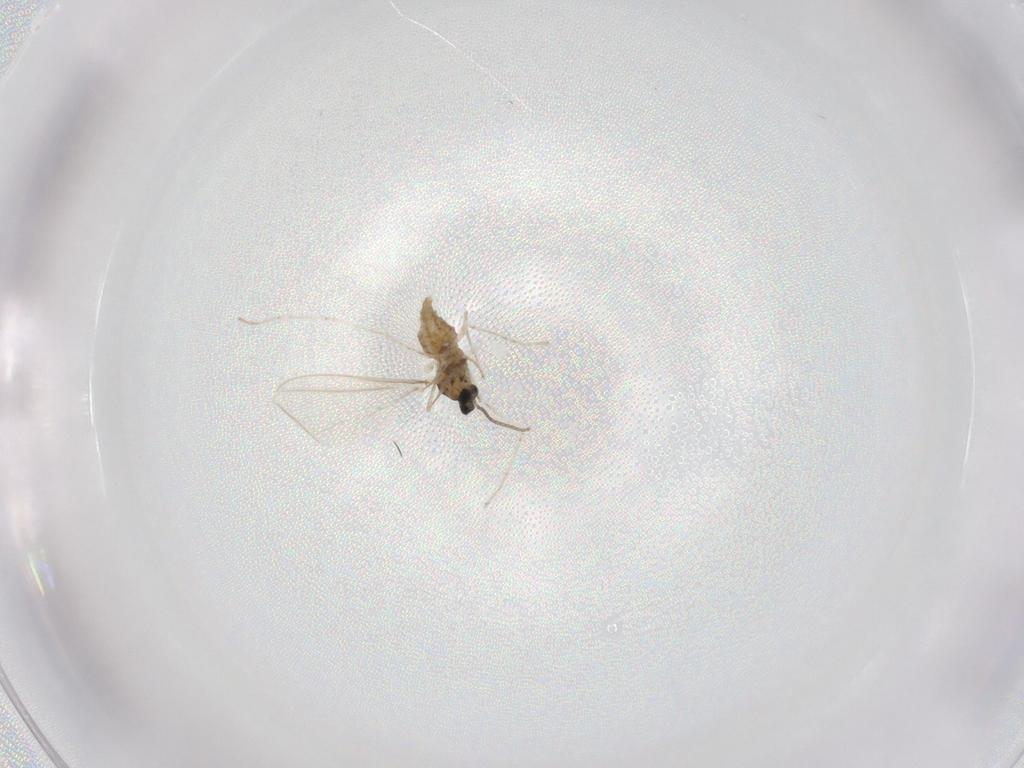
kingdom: Animalia
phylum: Arthropoda
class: Insecta
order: Diptera
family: Cecidomyiidae
